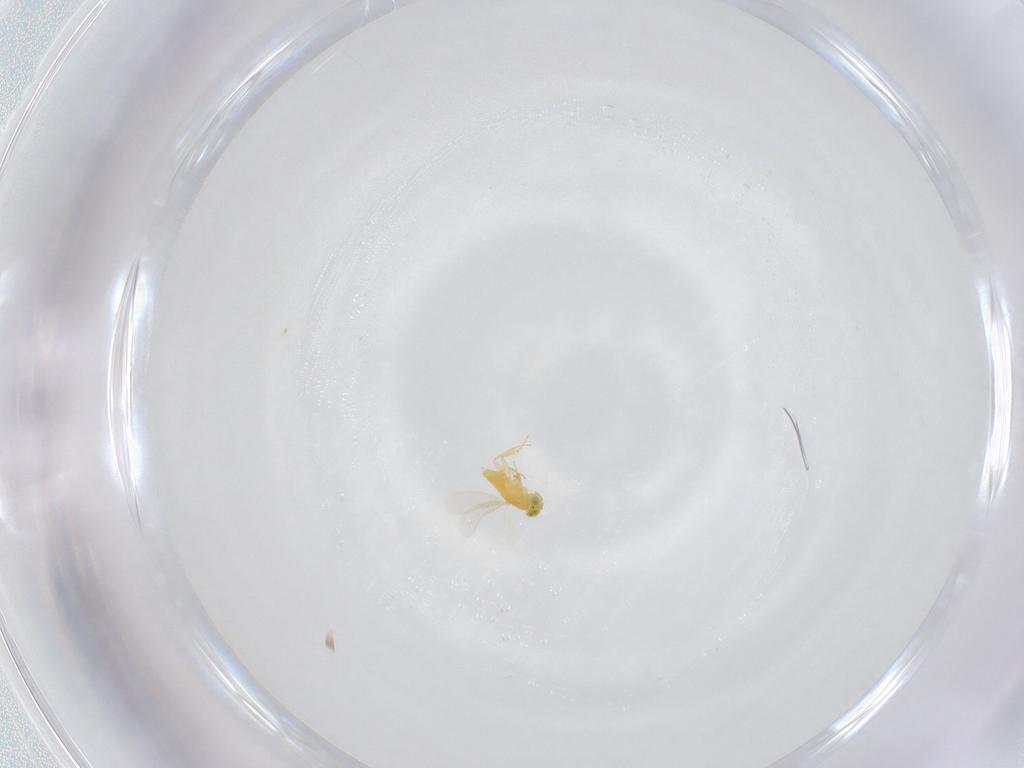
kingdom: Animalia
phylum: Arthropoda
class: Insecta
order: Hymenoptera
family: Aphelinidae
